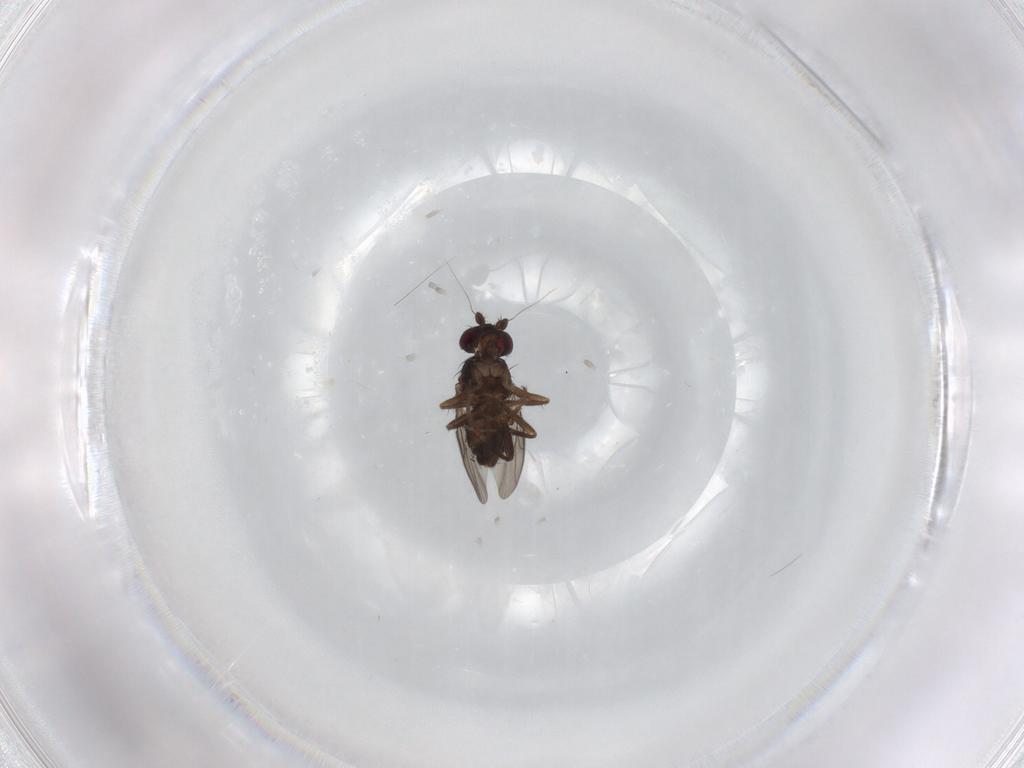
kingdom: Animalia
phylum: Arthropoda
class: Insecta
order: Diptera
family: Sphaeroceridae
